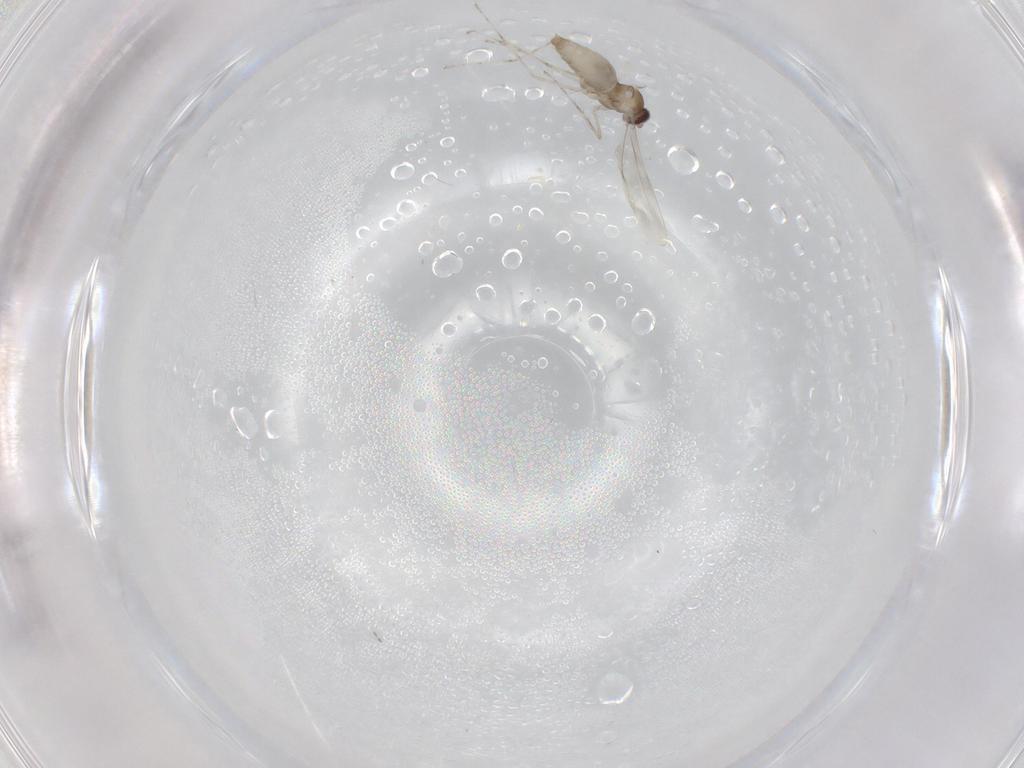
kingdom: Animalia
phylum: Arthropoda
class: Insecta
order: Diptera
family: Cecidomyiidae
